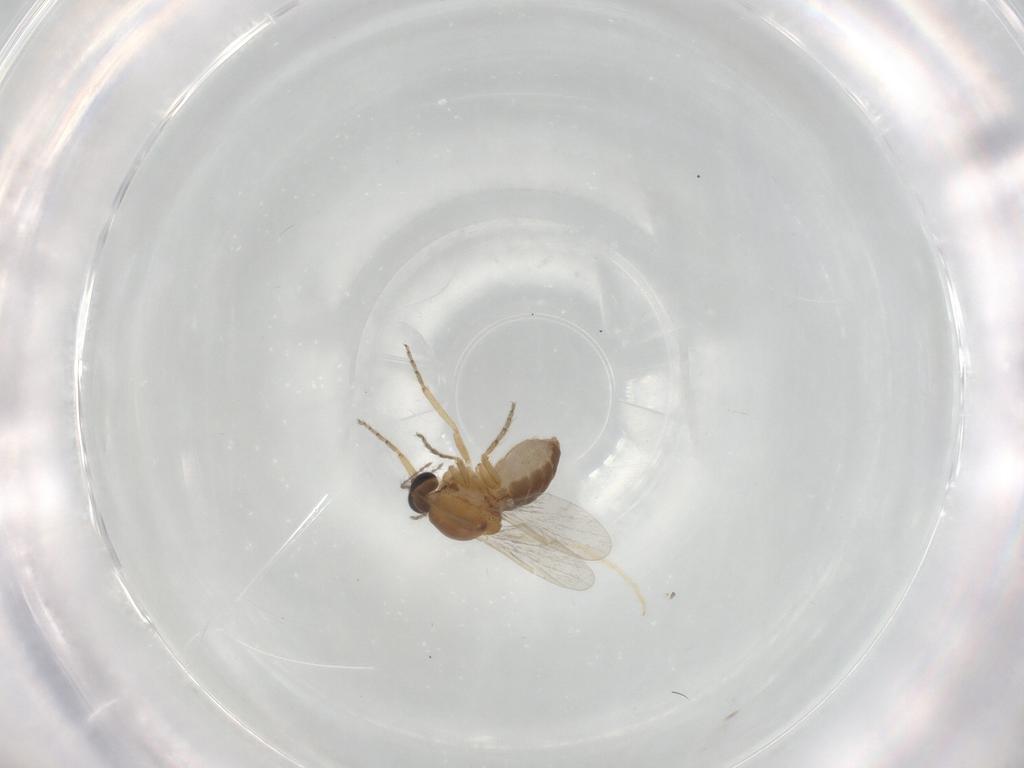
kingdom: Animalia
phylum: Arthropoda
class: Insecta
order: Diptera
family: Ceratopogonidae
